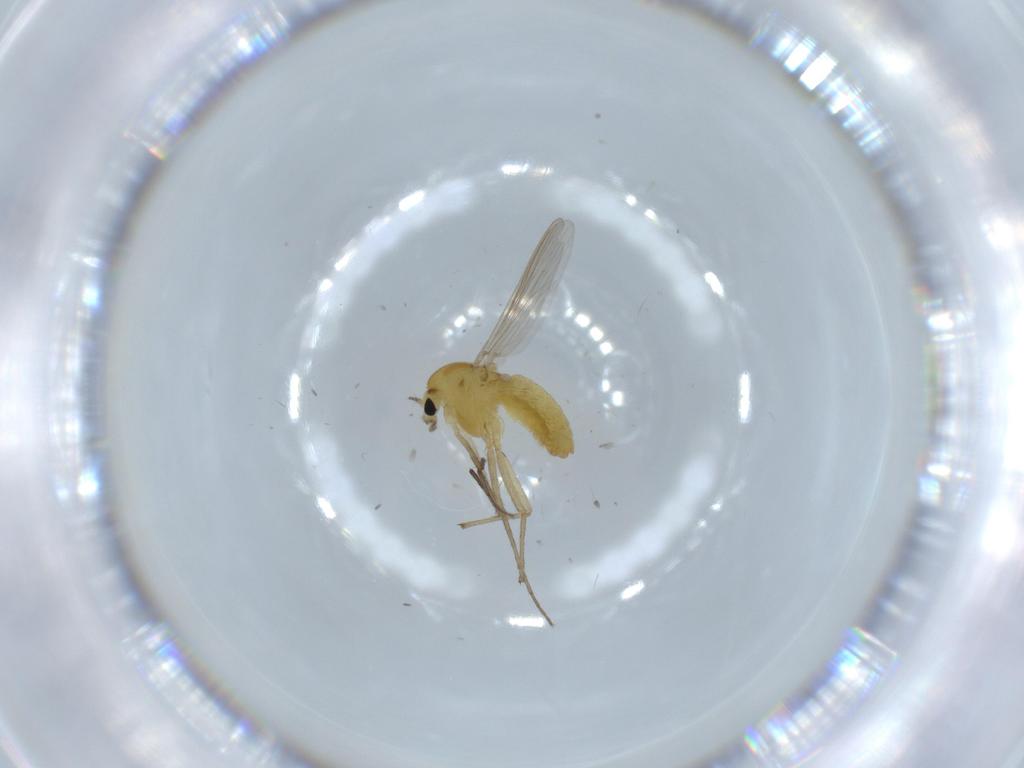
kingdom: Animalia
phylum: Arthropoda
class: Insecta
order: Diptera
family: Chironomidae
